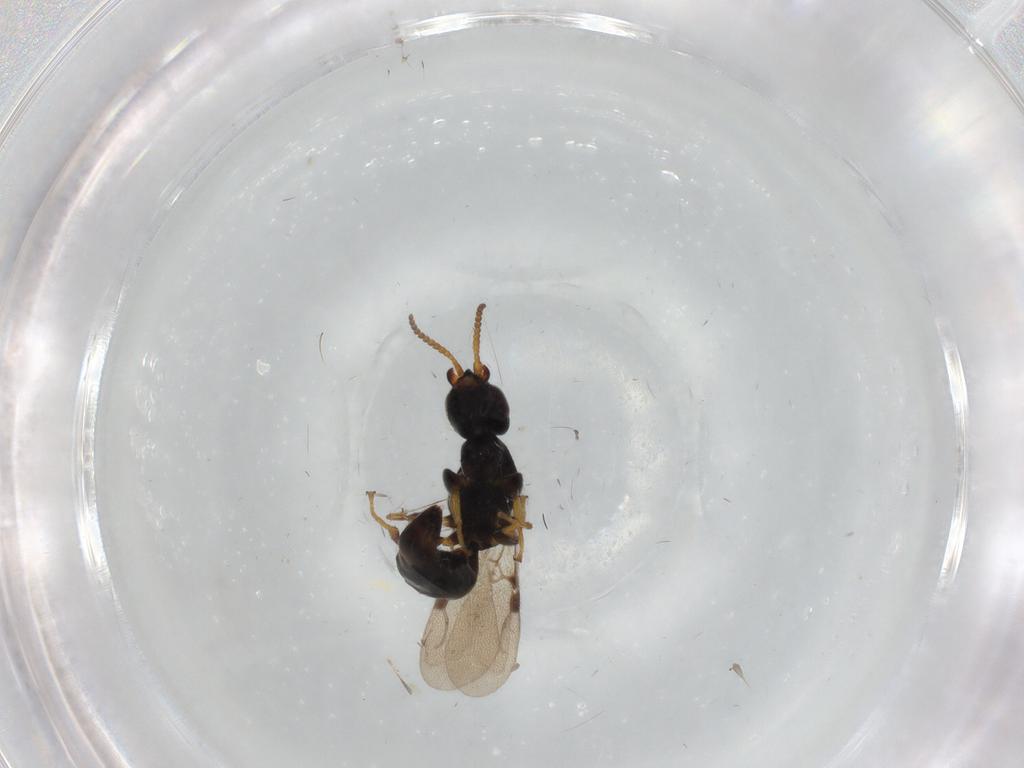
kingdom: Animalia
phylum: Arthropoda
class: Insecta
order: Hymenoptera
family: Bethylidae
